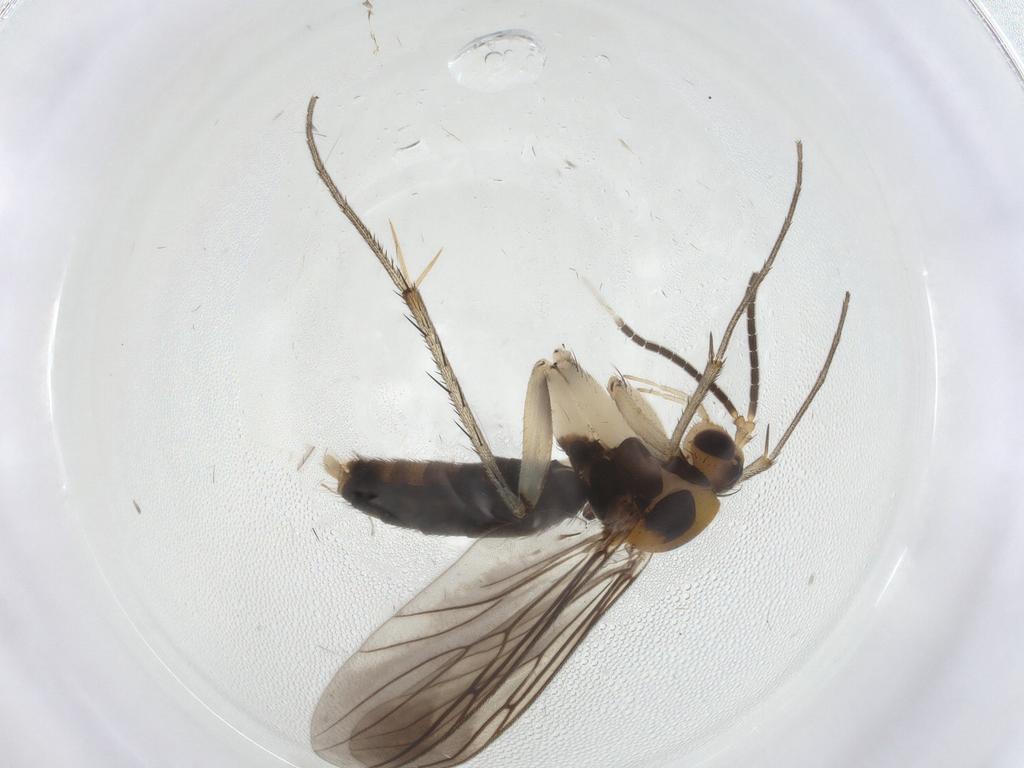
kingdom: Animalia
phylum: Arthropoda
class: Insecta
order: Diptera
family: Mycetophilidae
